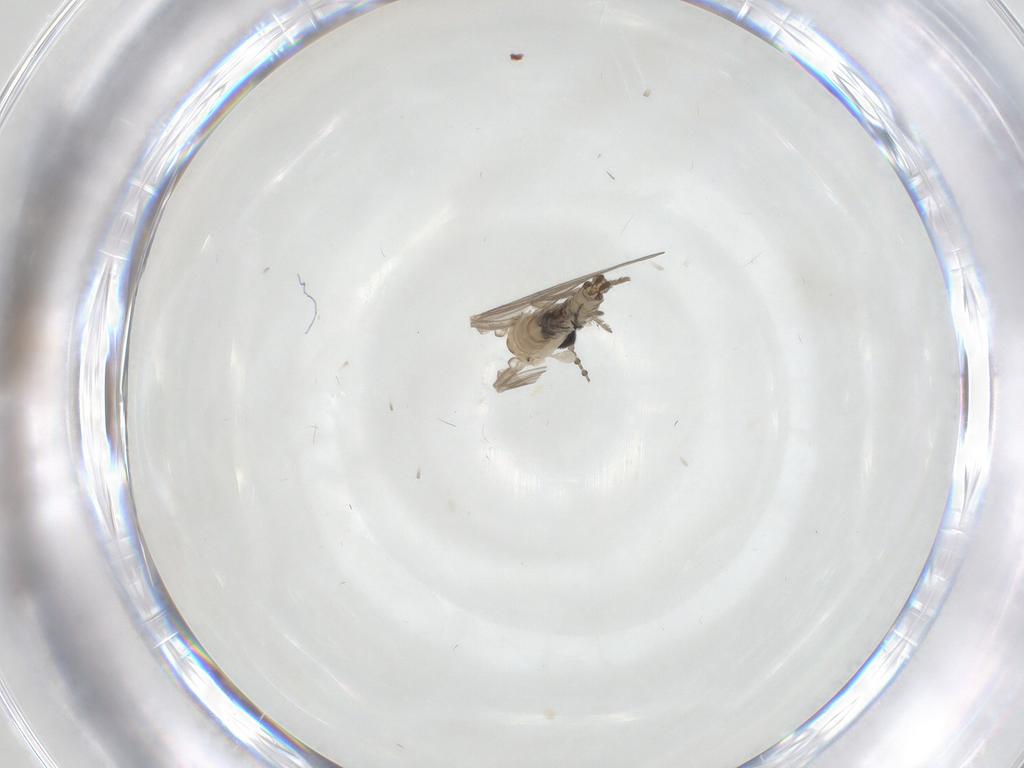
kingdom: Animalia
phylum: Arthropoda
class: Insecta
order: Diptera
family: Psychodidae
